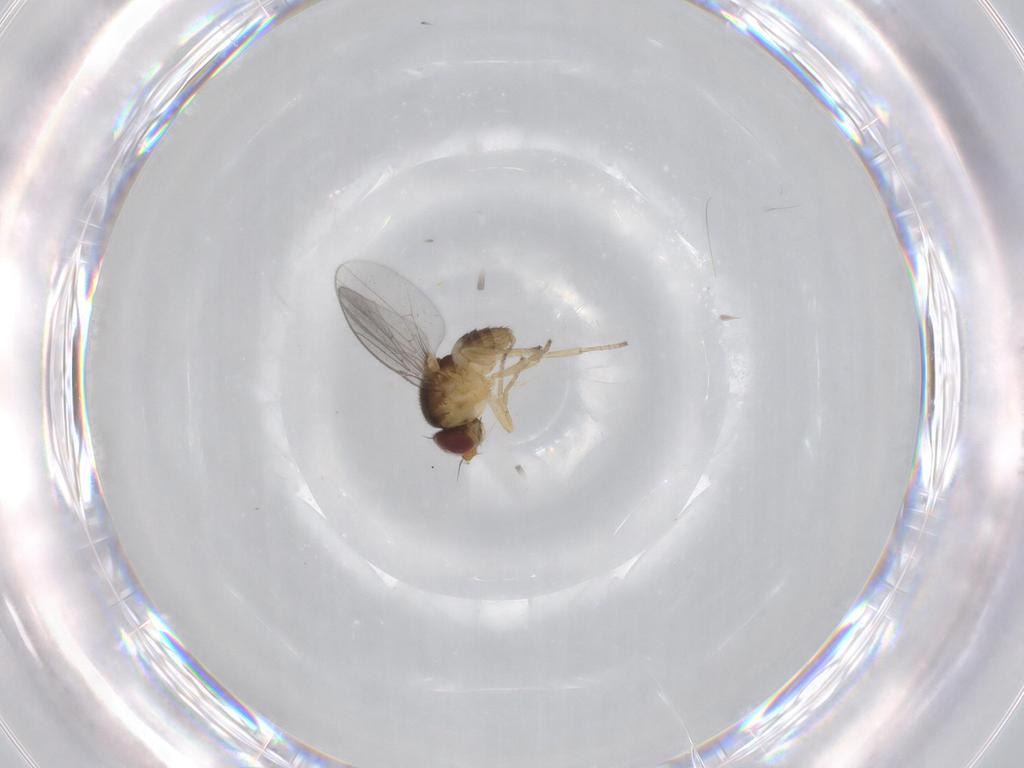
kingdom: Animalia
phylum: Arthropoda
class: Insecta
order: Diptera
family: Chloropidae
